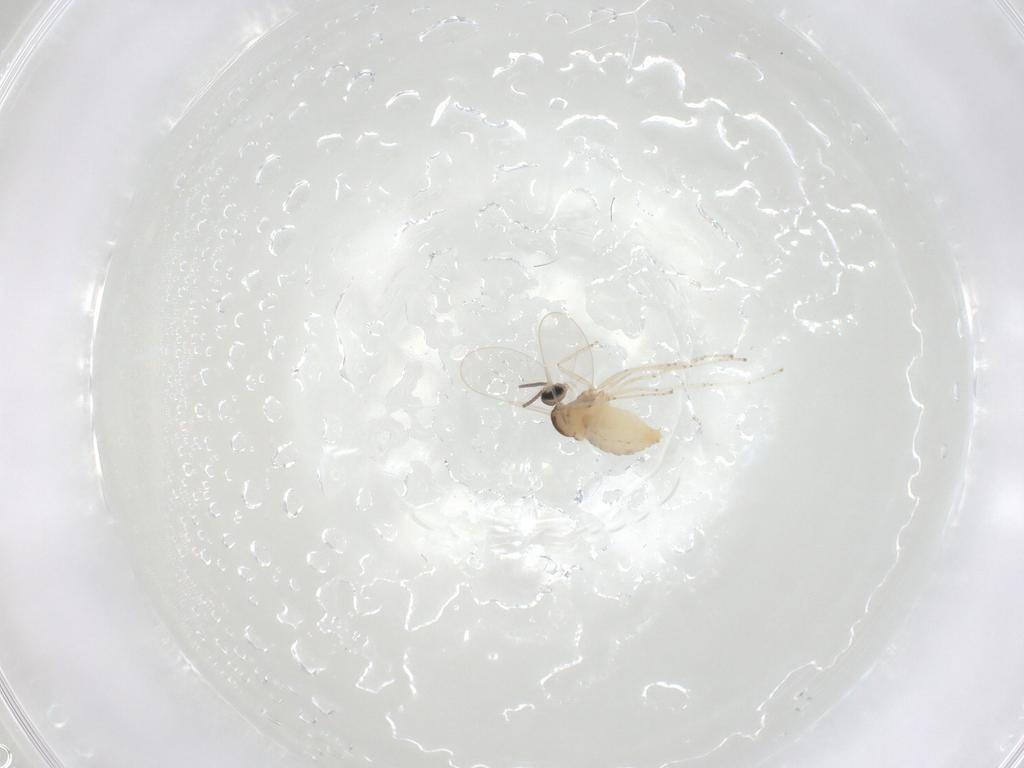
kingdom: Animalia
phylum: Arthropoda
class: Insecta
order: Diptera
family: Cecidomyiidae
